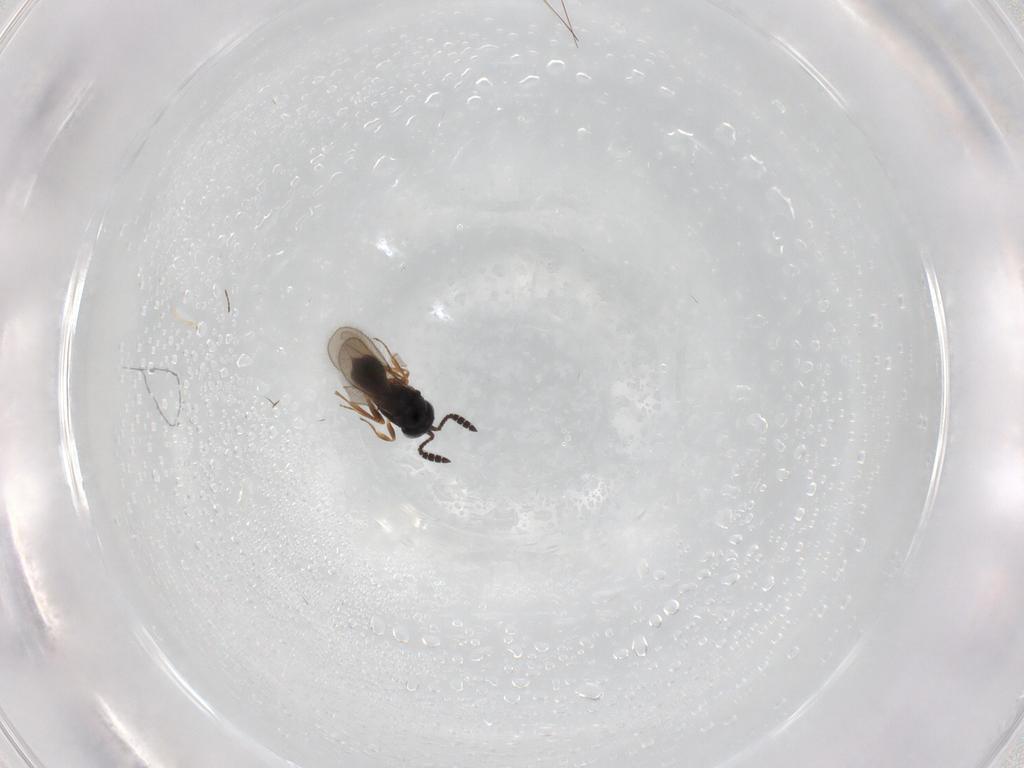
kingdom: Animalia
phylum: Arthropoda
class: Insecta
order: Hymenoptera
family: Scelionidae
